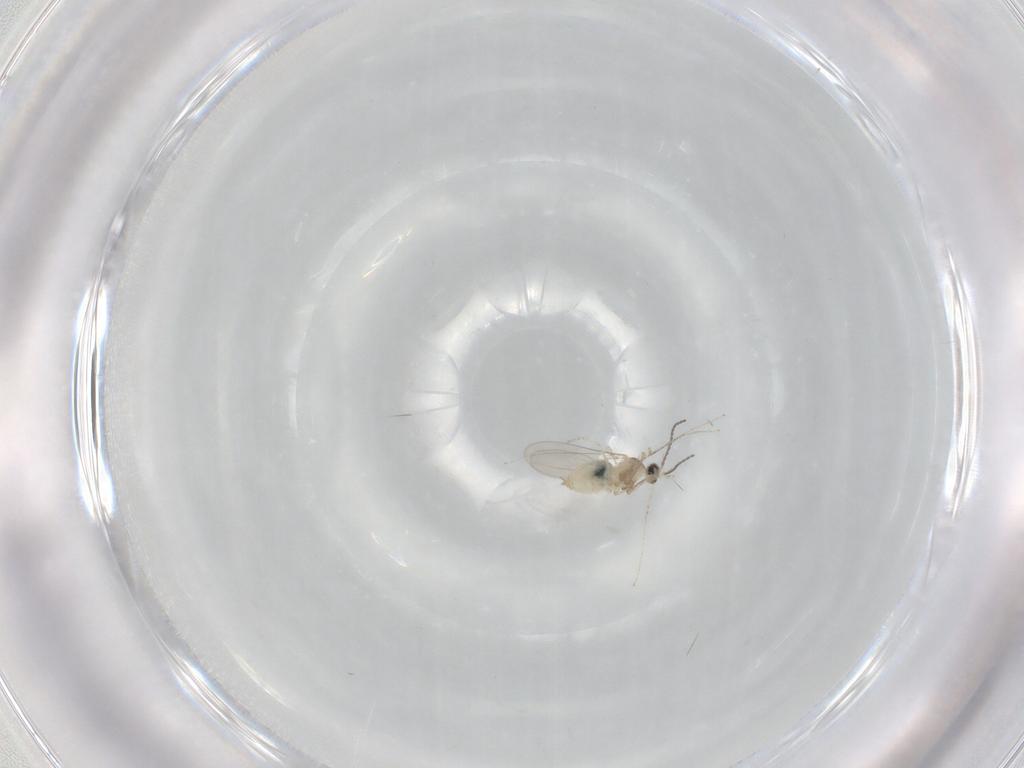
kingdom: Animalia
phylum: Arthropoda
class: Insecta
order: Diptera
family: Cecidomyiidae
